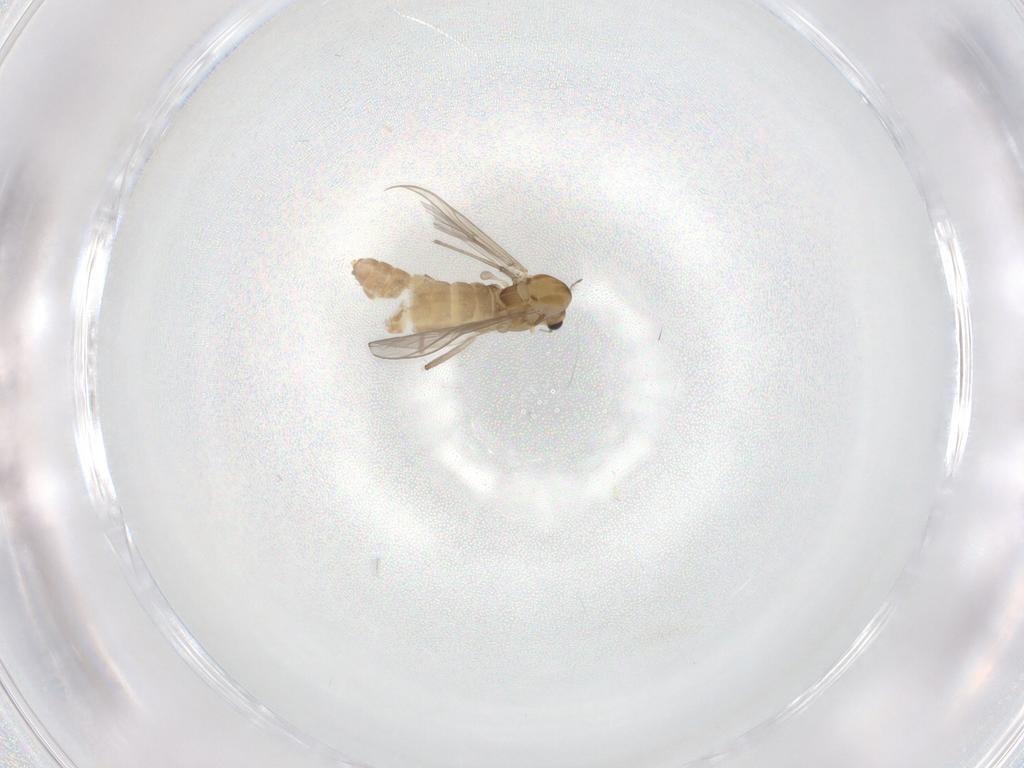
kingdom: Animalia
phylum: Arthropoda
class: Insecta
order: Diptera
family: Chironomidae
